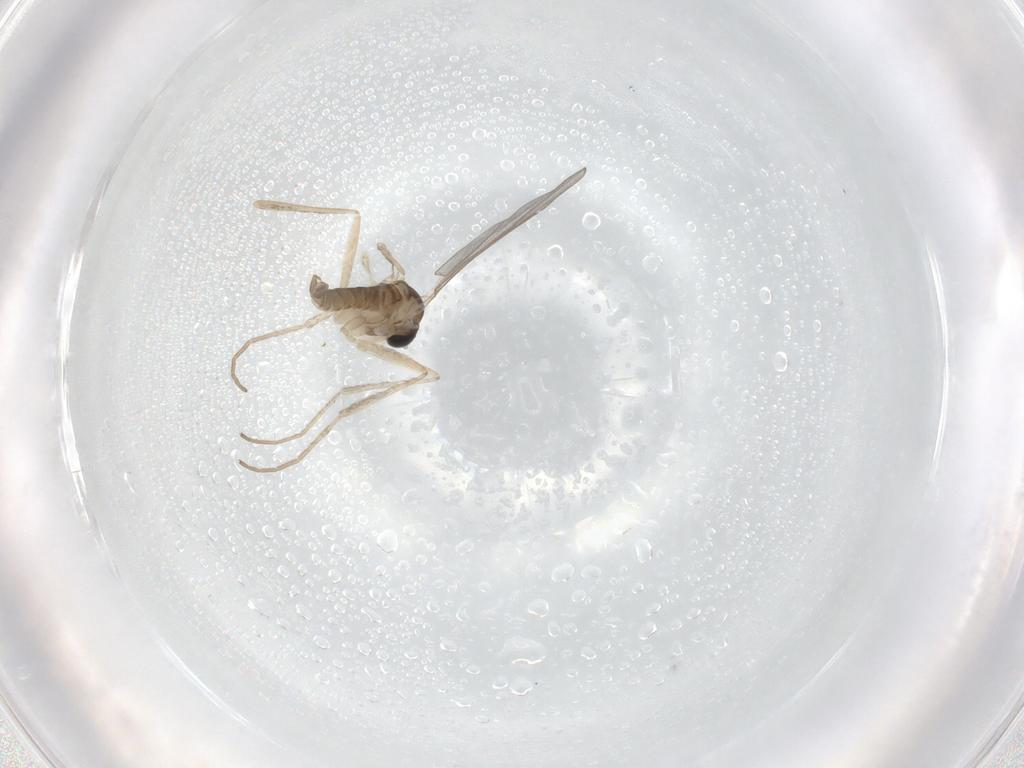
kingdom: Animalia
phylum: Arthropoda
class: Insecta
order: Diptera
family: Cecidomyiidae
